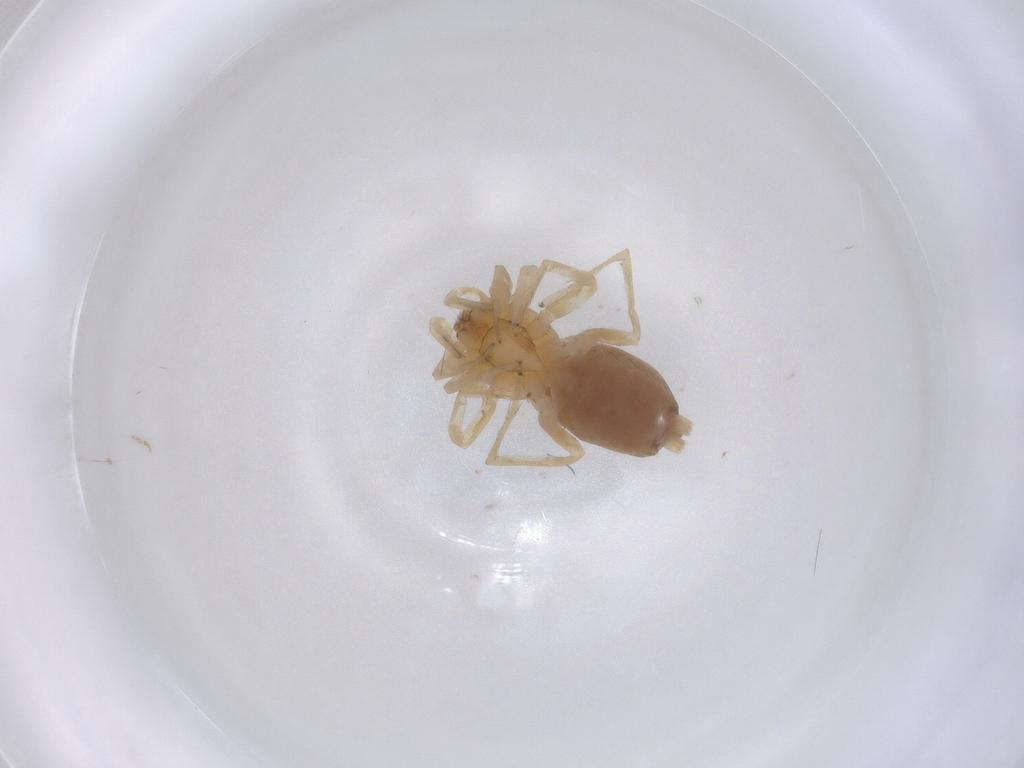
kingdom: Animalia
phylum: Arthropoda
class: Arachnida
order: Araneae
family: Gnaphosidae
